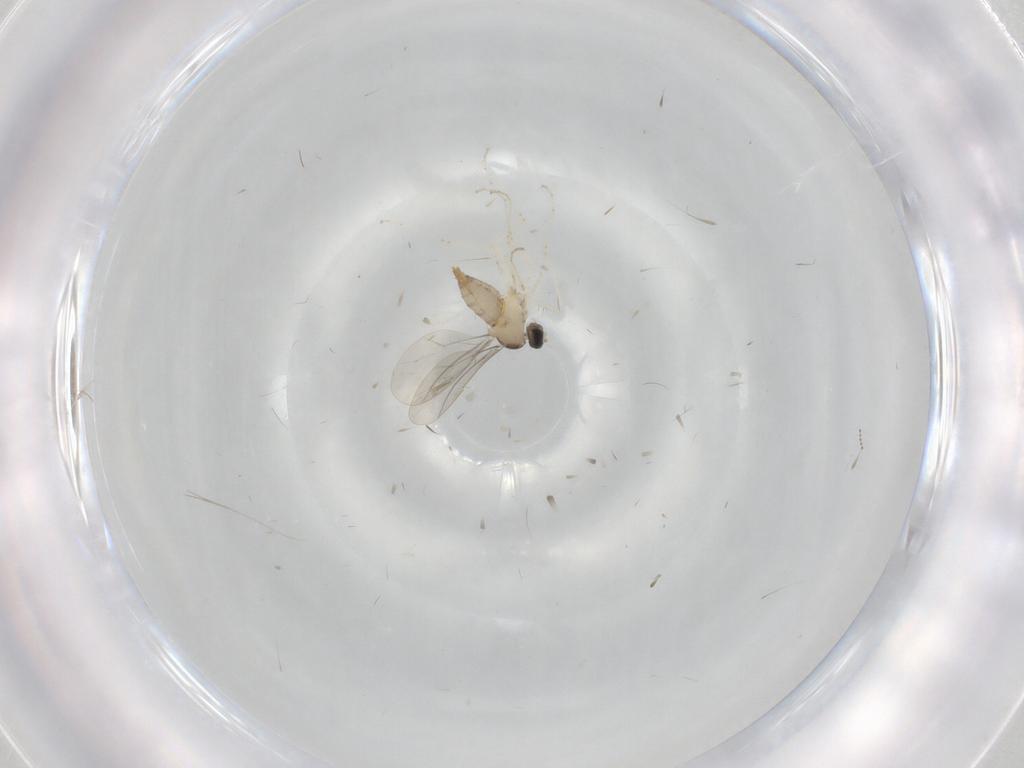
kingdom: Animalia
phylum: Arthropoda
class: Insecta
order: Diptera
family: Cecidomyiidae
